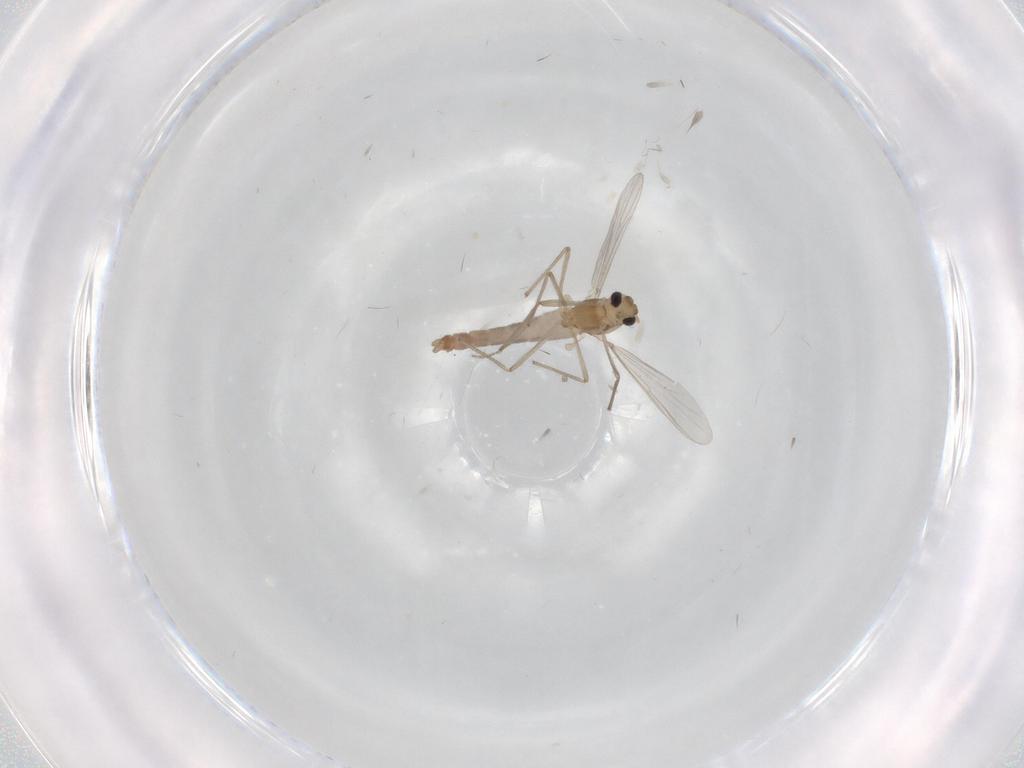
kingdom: Animalia
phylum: Arthropoda
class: Insecta
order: Diptera
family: Chironomidae
